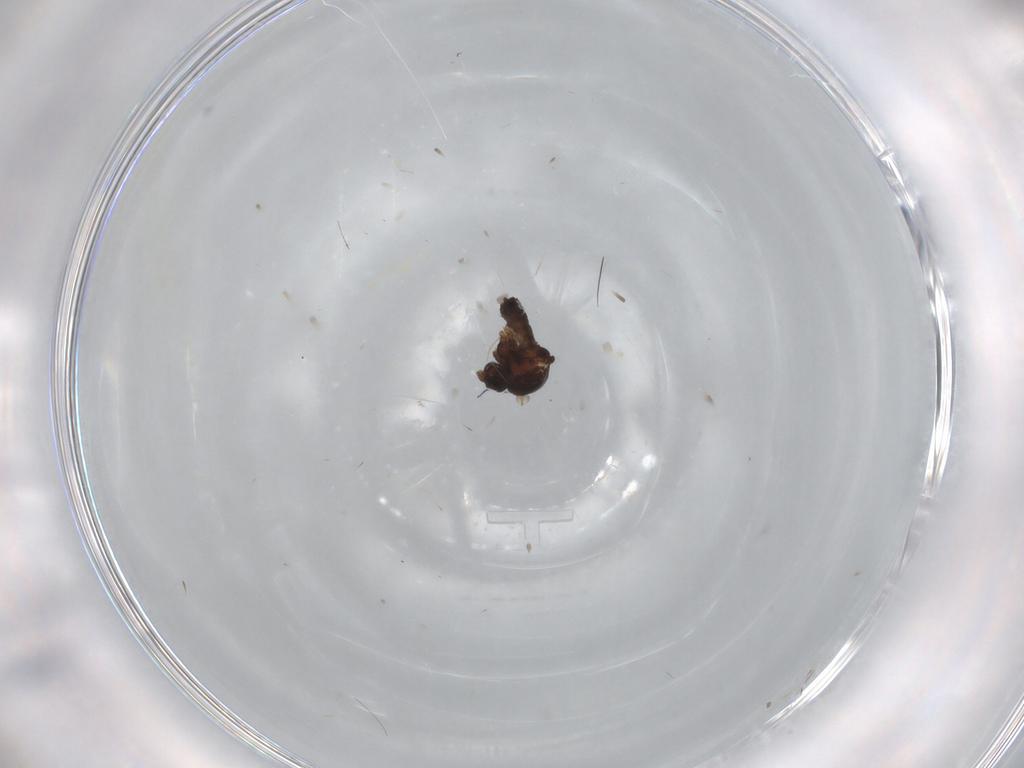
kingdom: Animalia
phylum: Arthropoda
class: Insecta
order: Diptera
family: Ceratopogonidae
